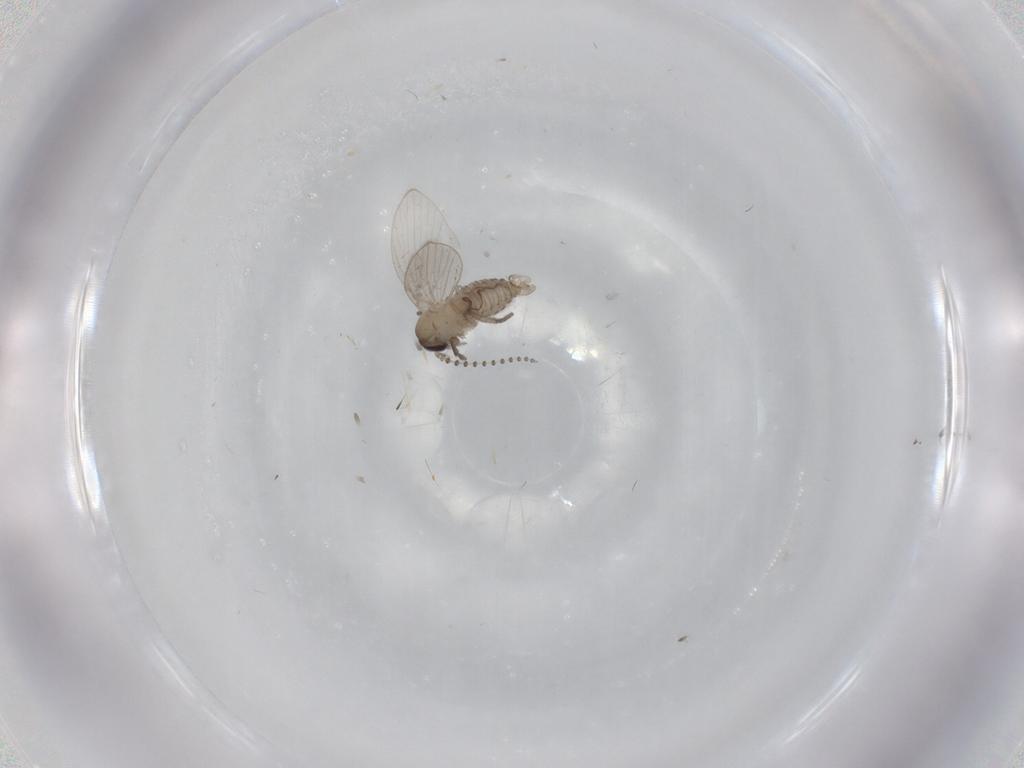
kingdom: Animalia
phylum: Arthropoda
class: Insecta
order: Diptera
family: Psychodidae
